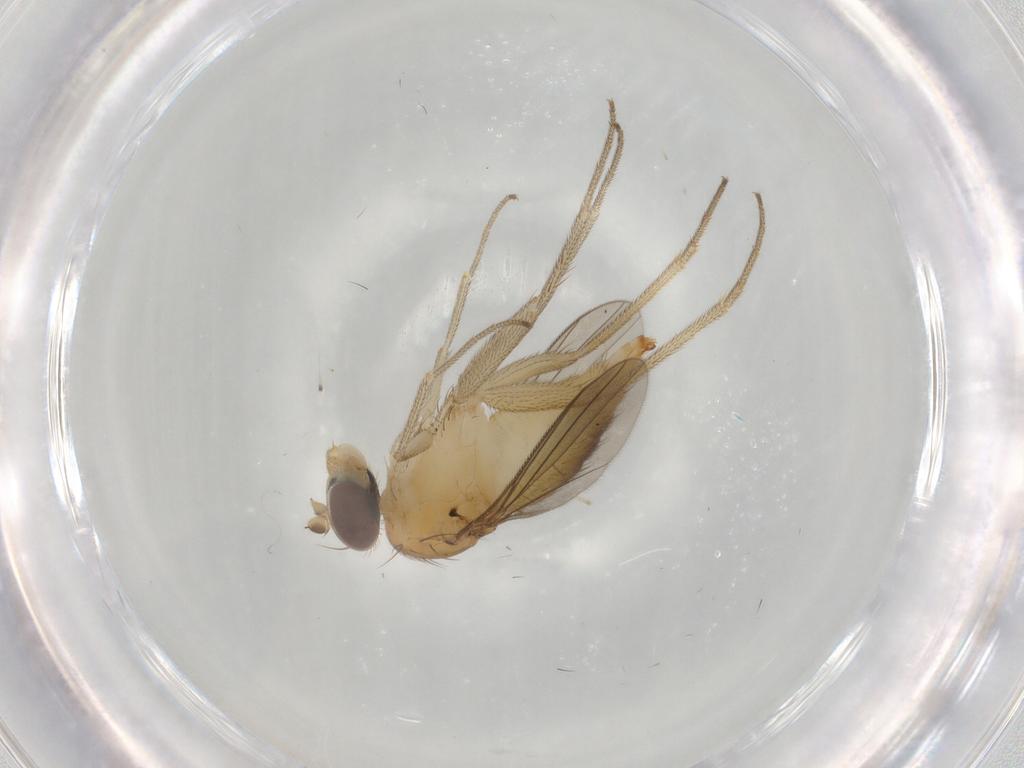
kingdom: Animalia
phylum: Arthropoda
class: Insecta
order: Diptera
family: Dolichopodidae
